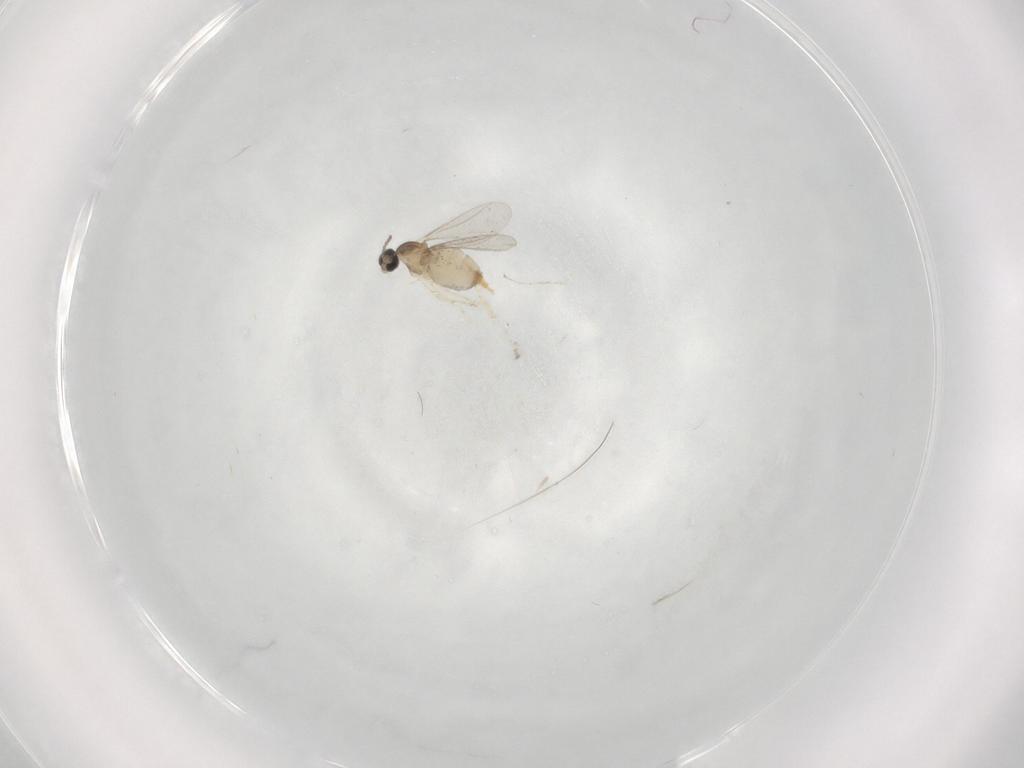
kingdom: Animalia
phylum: Arthropoda
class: Insecta
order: Diptera
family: Cecidomyiidae
